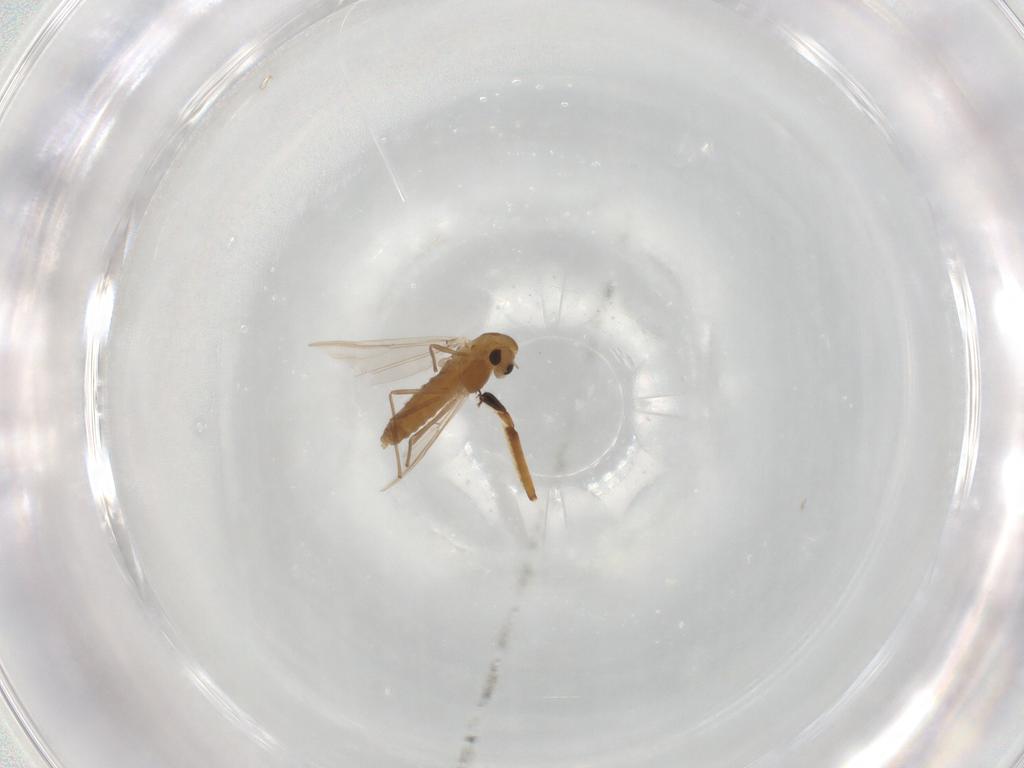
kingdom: Animalia
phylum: Arthropoda
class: Insecta
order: Diptera
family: Chironomidae
